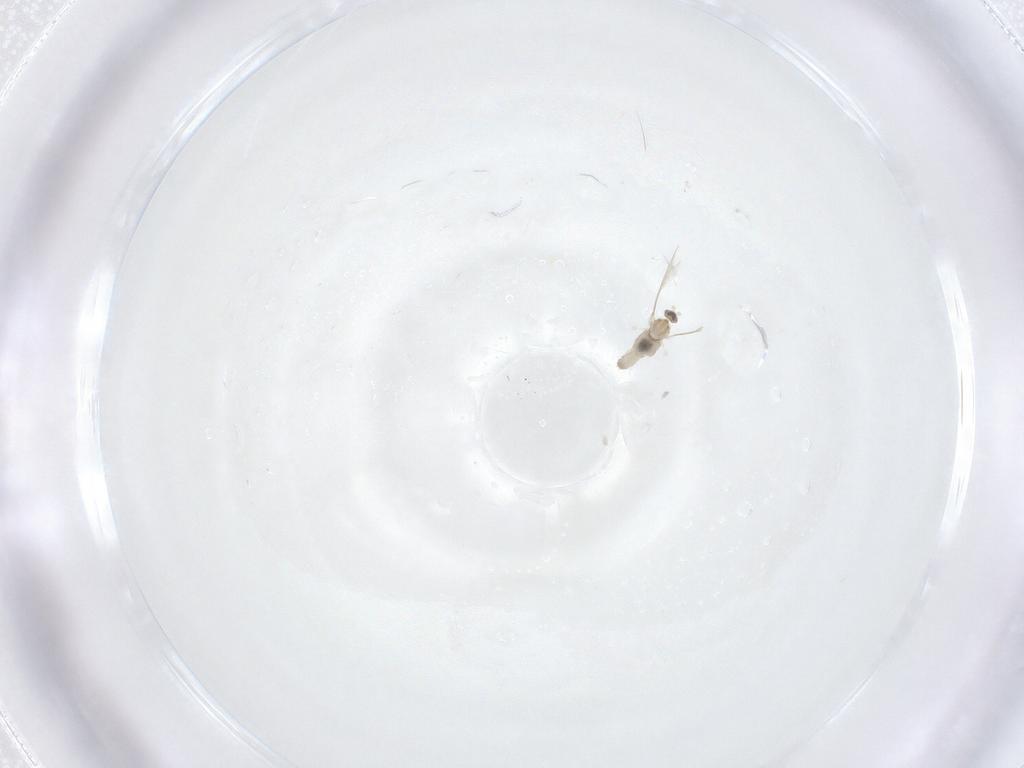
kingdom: Animalia
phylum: Arthropoda
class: Insecta
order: Diptera
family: Cecidomyiidae
